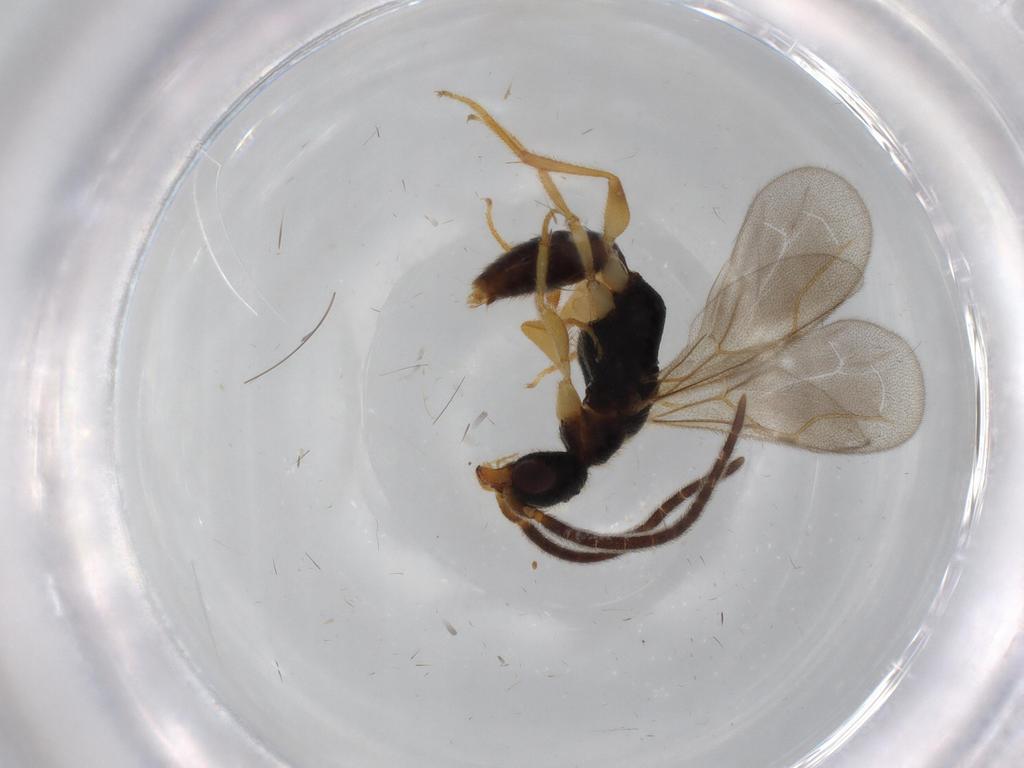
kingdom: Animalia
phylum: Arthropoda
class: Insecta
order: Hymenoptera
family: Bethylidae
